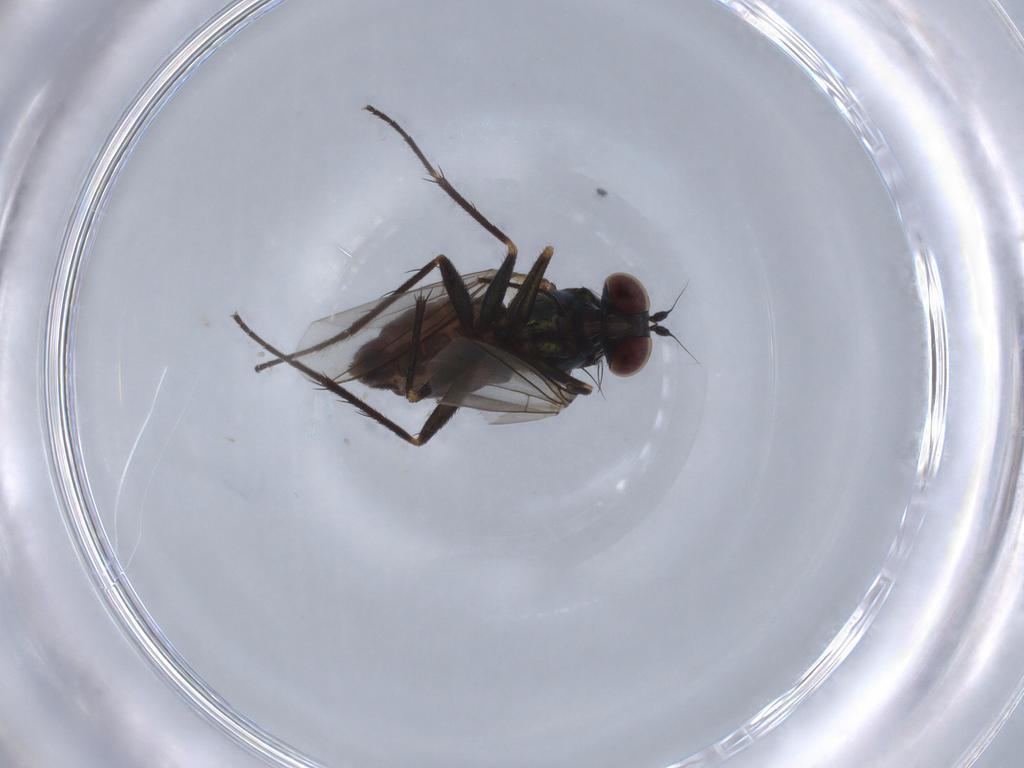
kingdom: Animalia
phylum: Arthropoda
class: Insecta
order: Diptera
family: Dolichopodidae
